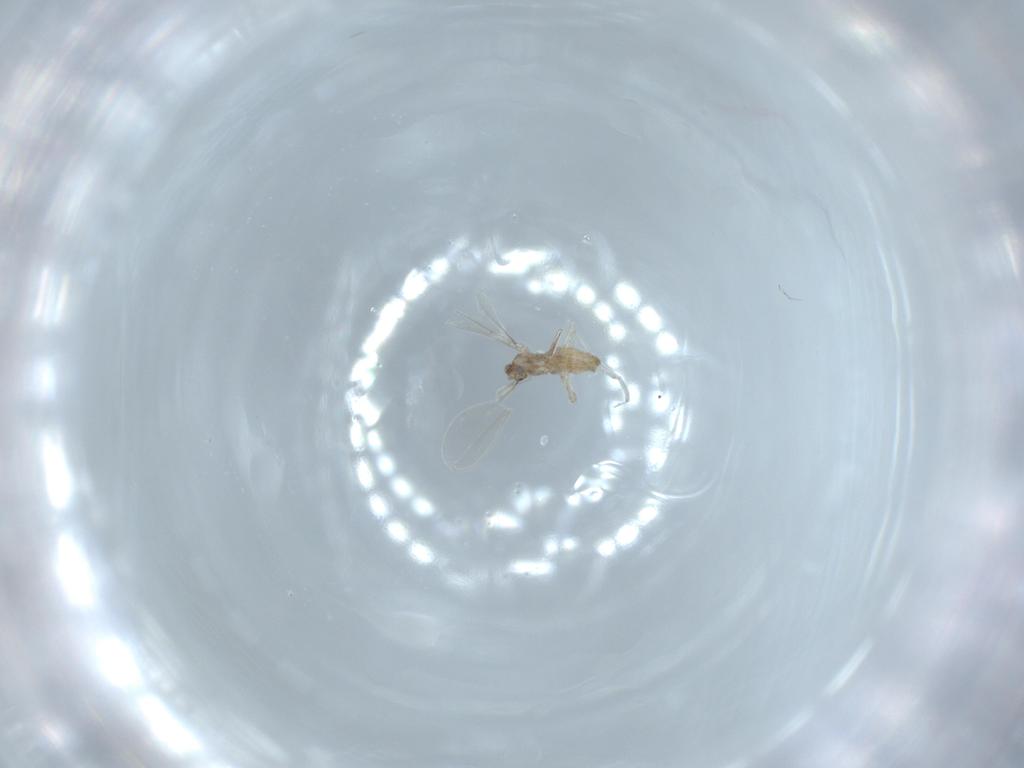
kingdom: Animalia
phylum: Arthropoda
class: Insecta
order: Diptera
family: Cecidomyiidae
